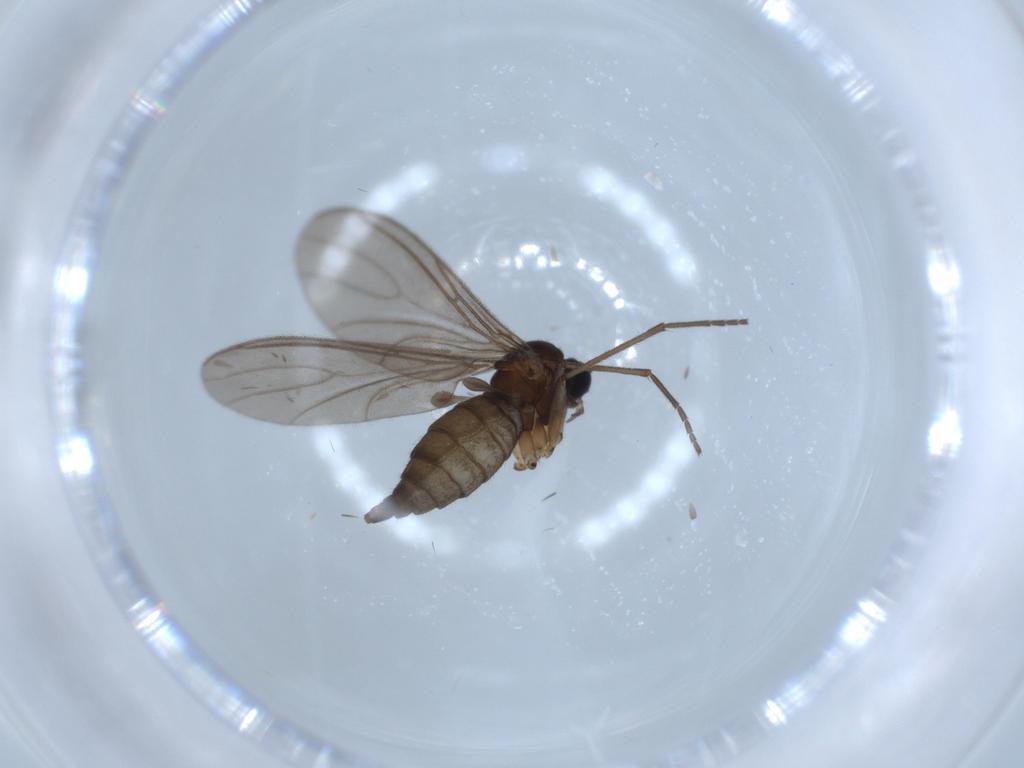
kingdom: Animalia
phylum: Arthropoda
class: Insecta
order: Diptera
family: Sciaridae
